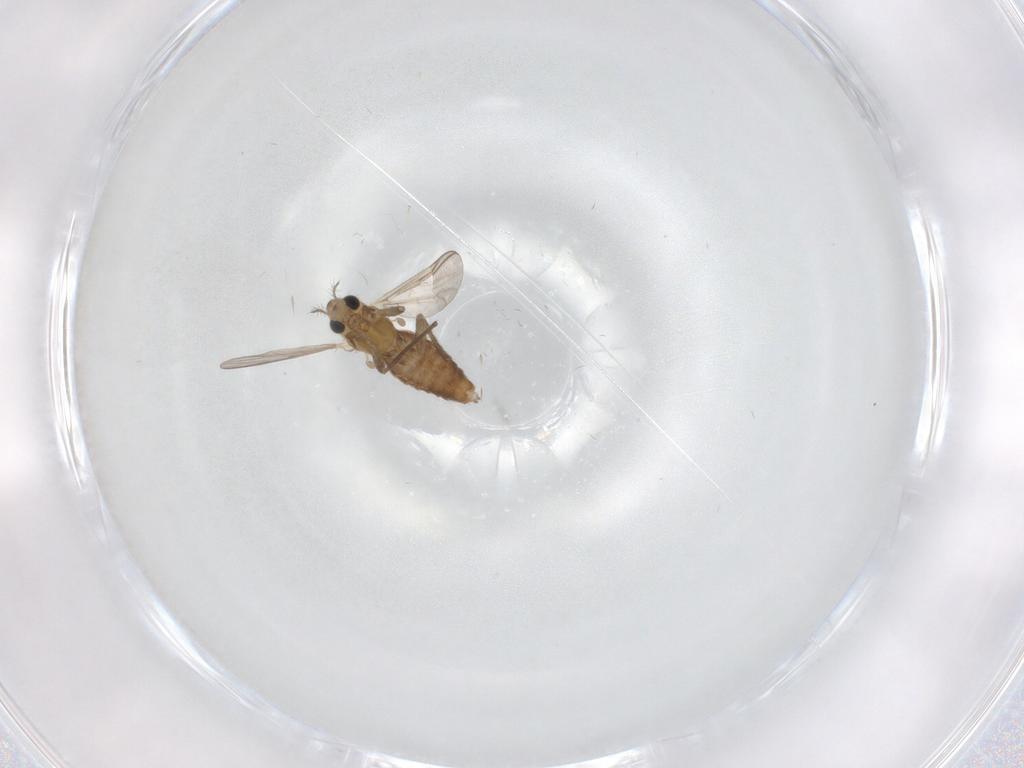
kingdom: Animalia
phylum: Arthropoda
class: Insecta
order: Diptera
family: Chironomidae
